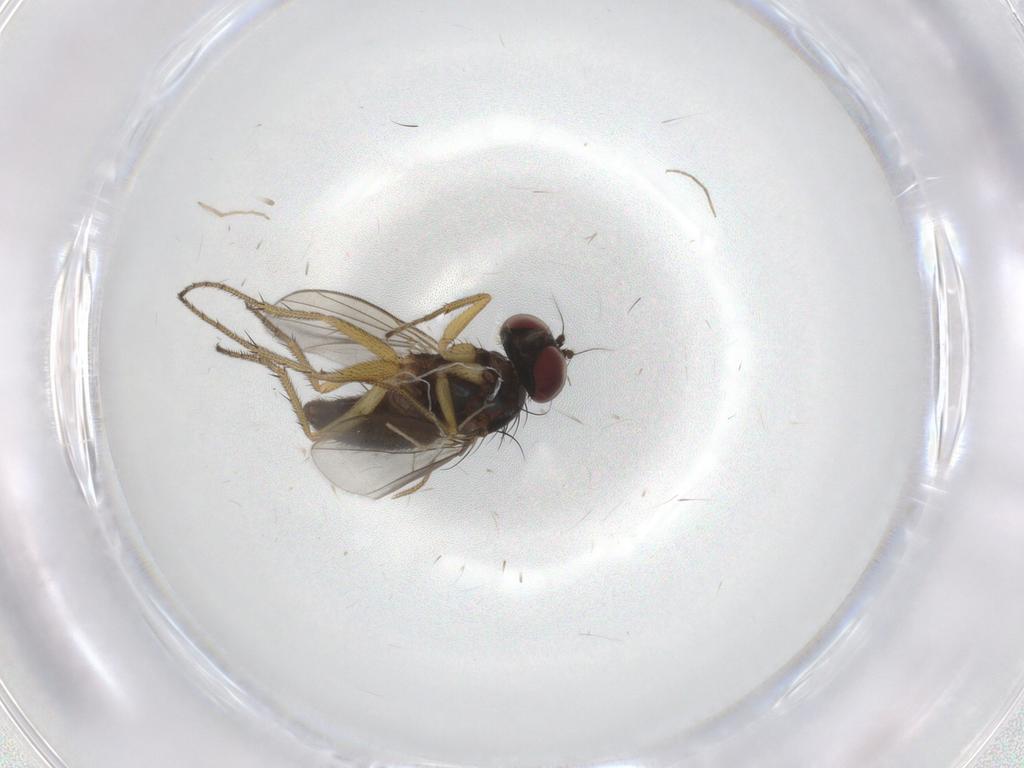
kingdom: Animalia
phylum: Arthropoda
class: Insecta
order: Diptera
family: Dolichopodidae
